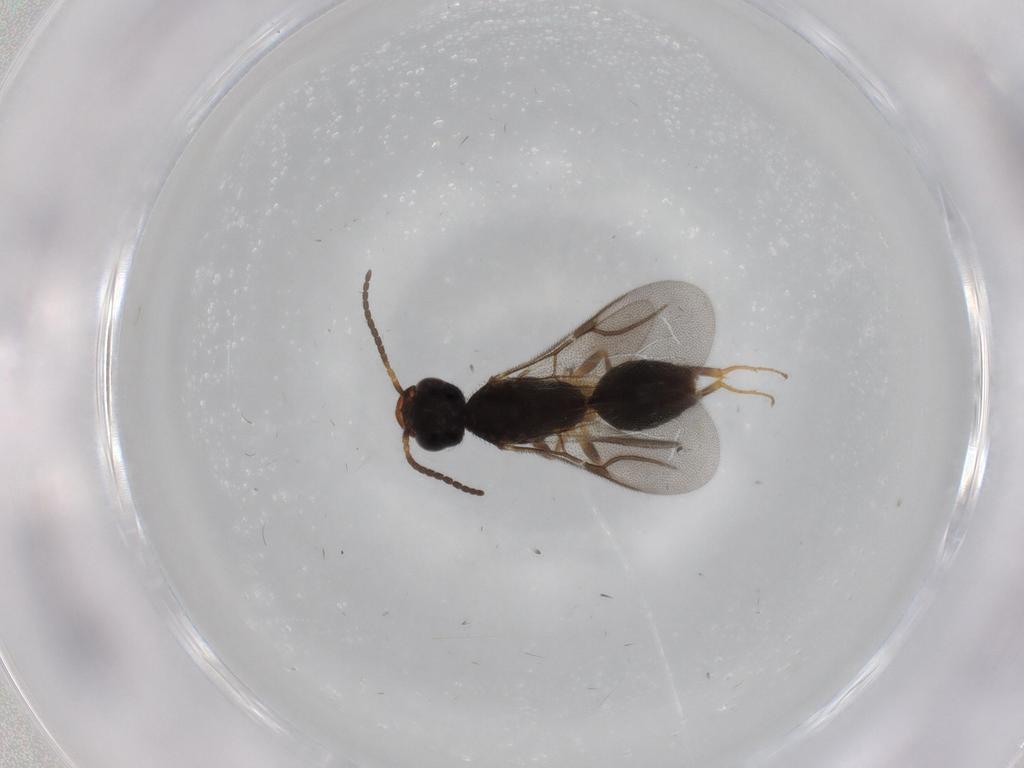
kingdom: Animalia
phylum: Arthropoda
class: Insecta
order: Hymenoptera
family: Bethylidae
